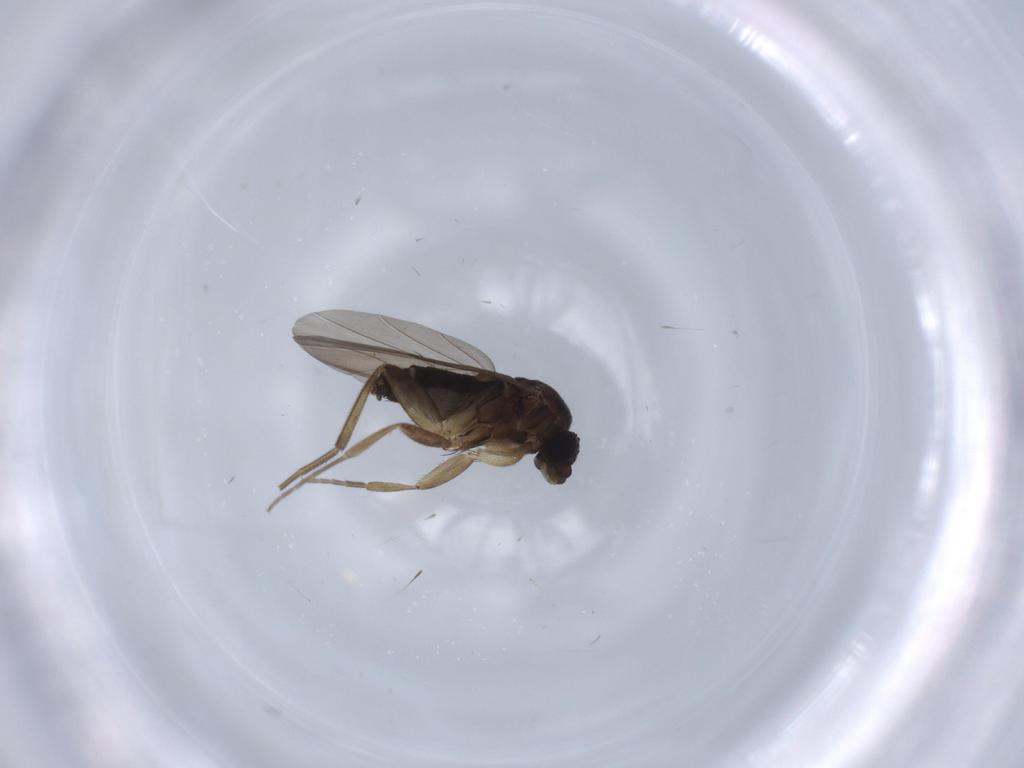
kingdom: Animalia
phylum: Arthropoda
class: Insecta
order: Diptera
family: Phoridae
